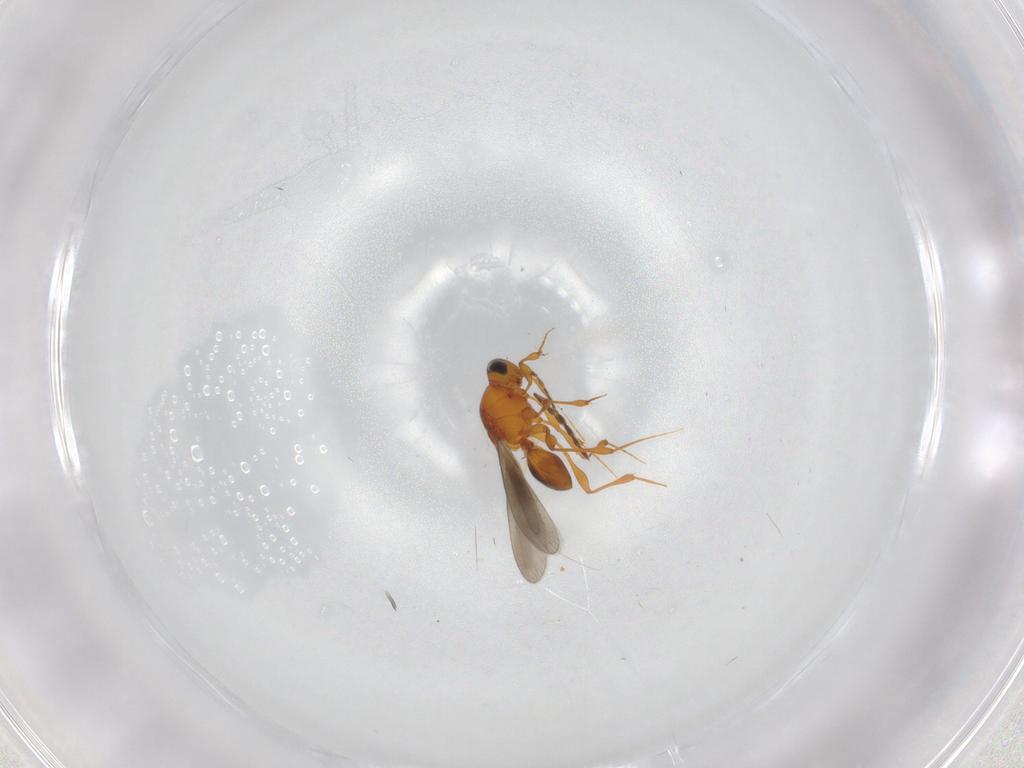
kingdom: Animalia
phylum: Arthropoda
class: Insecta
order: Hymenoptera
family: Platygastridae
